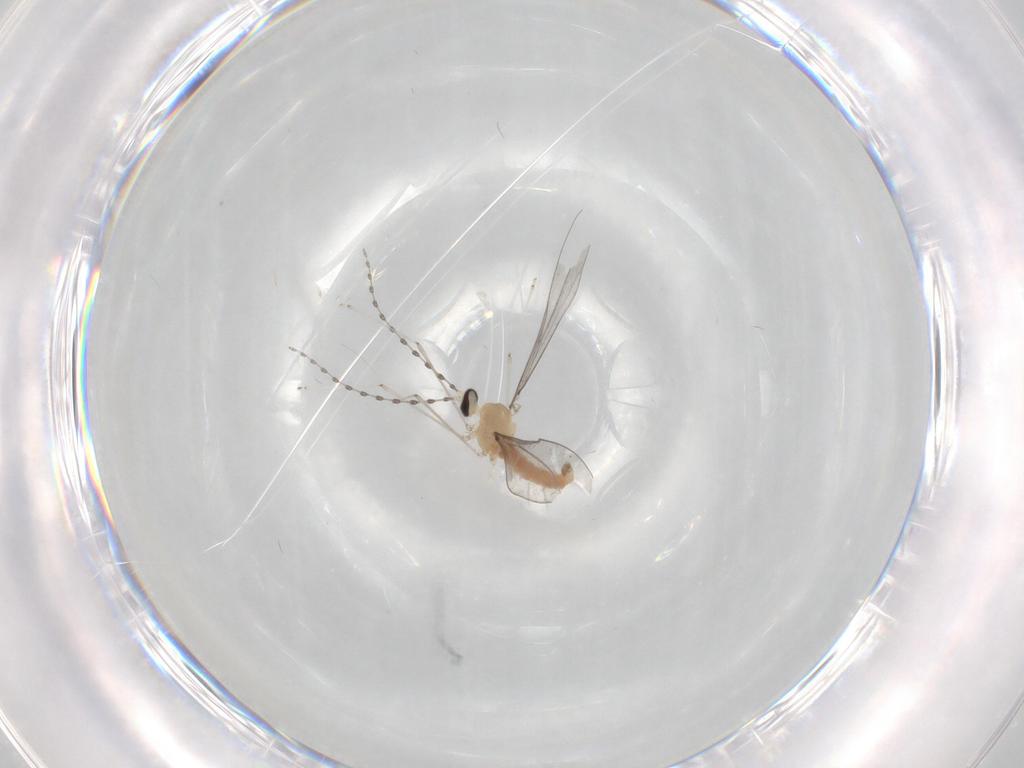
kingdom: Animalia
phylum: Arthropoda
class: Insecta
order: Diptera
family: Cecidomyiidae
